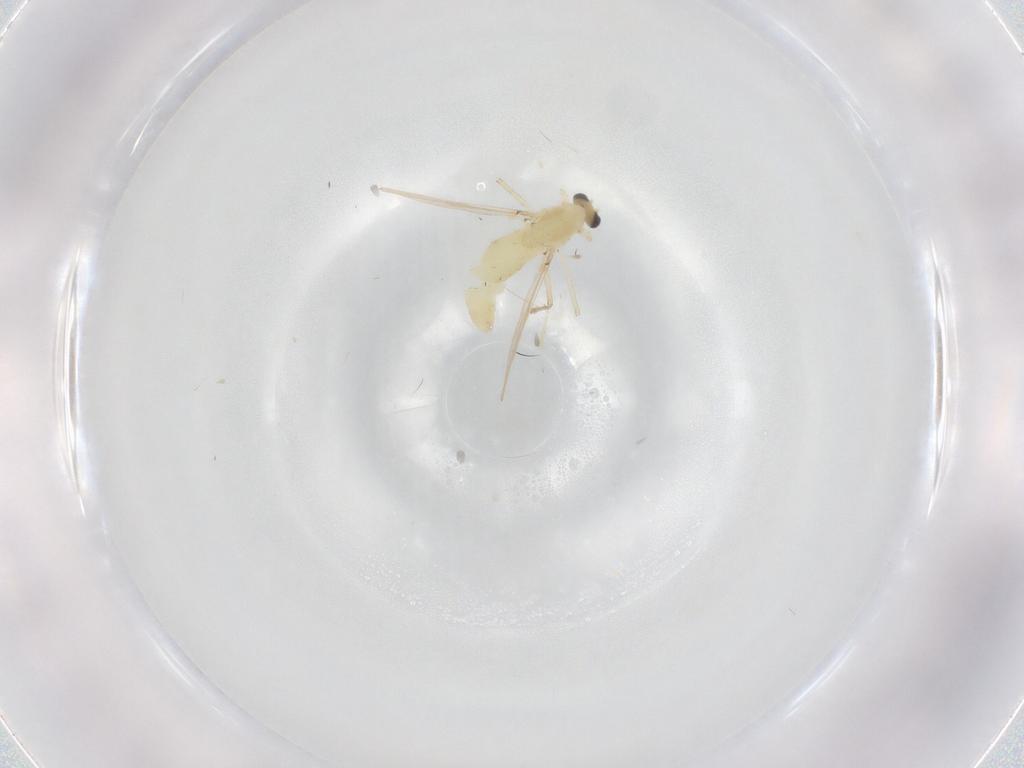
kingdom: Animalia
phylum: Arthropoda
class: Insecta
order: Diptera
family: Chironomidae
